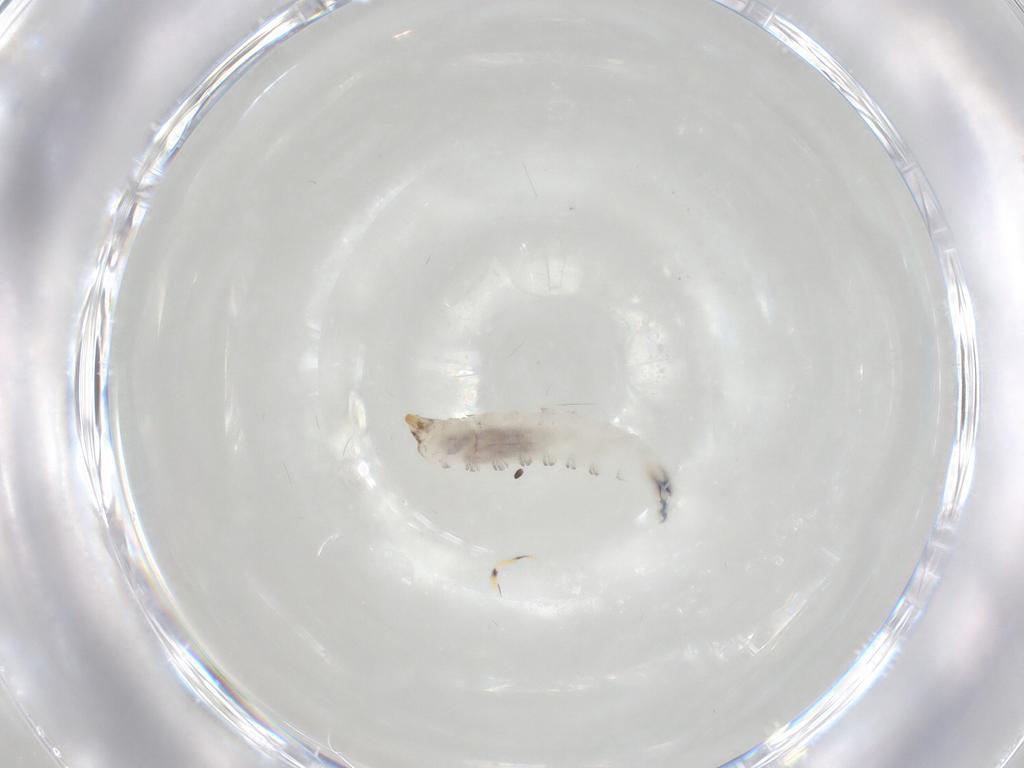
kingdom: Animalia
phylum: Arthropoda
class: Insecta
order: Diptera
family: Drosophilidae
